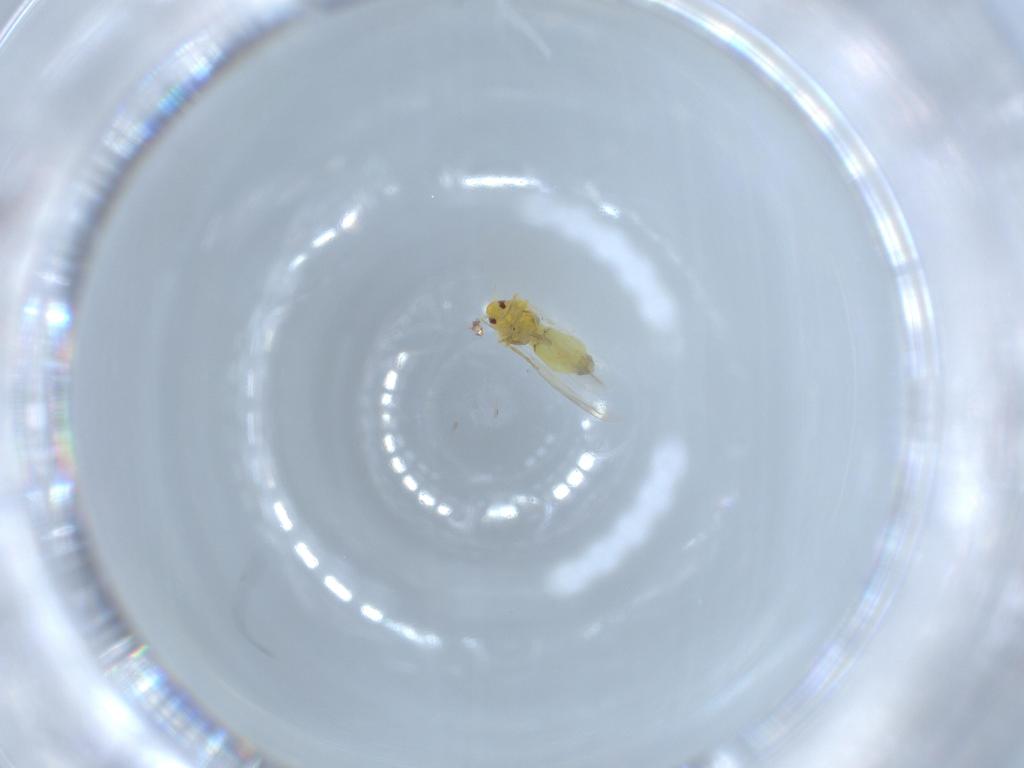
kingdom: Animalia
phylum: Arthropoda
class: Insecta
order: Hemiptera
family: Aleyrodidae
